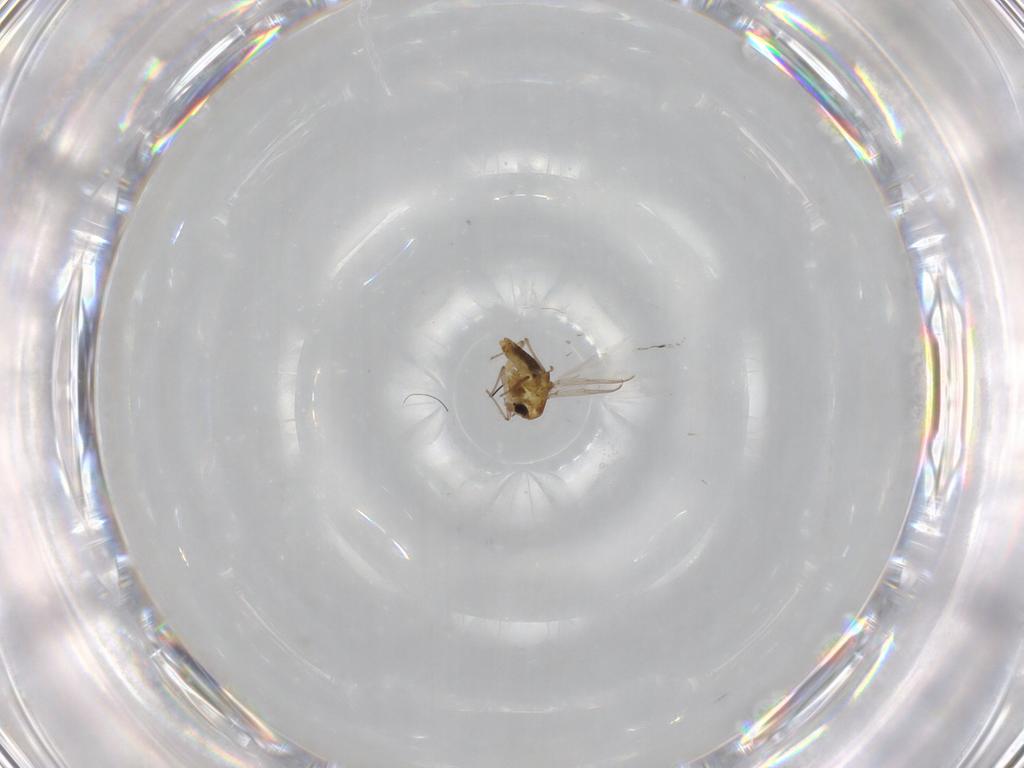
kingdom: Animalia
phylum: Arthropoda
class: Insecta
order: Diptera
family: Chironomidae
